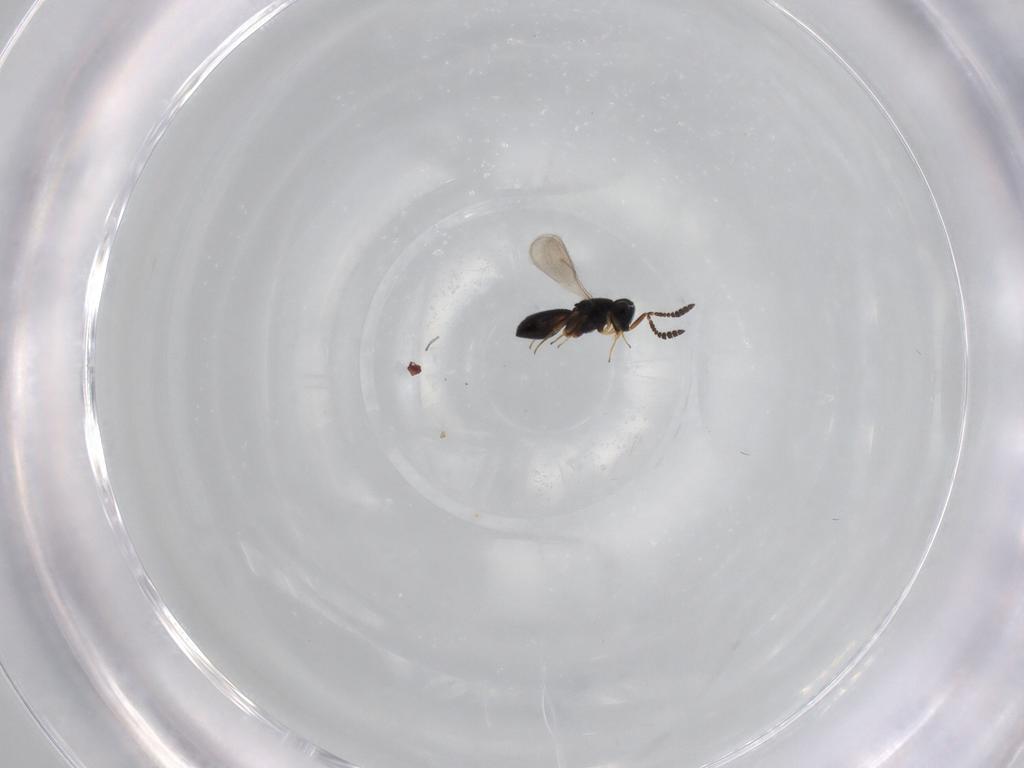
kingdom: Animalia
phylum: Arthropoda
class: Insecta
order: Hymenoptera
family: Scelionidae
